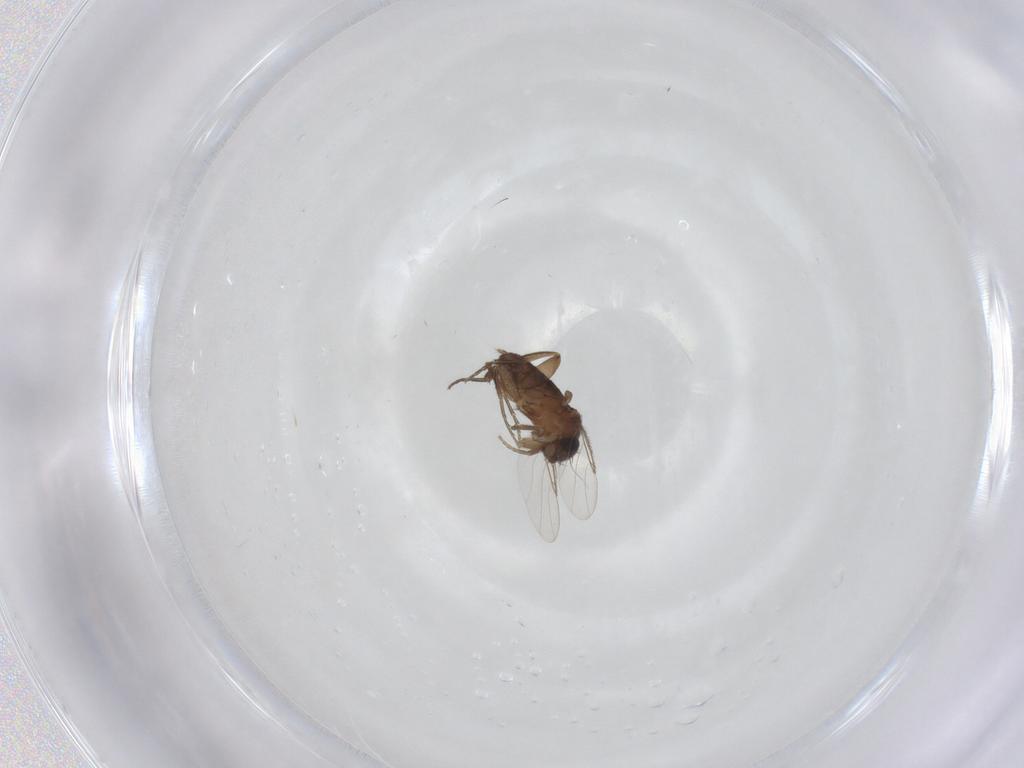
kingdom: Animalia
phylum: Arthropoda
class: Insecta
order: Diptera
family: Phoridae
